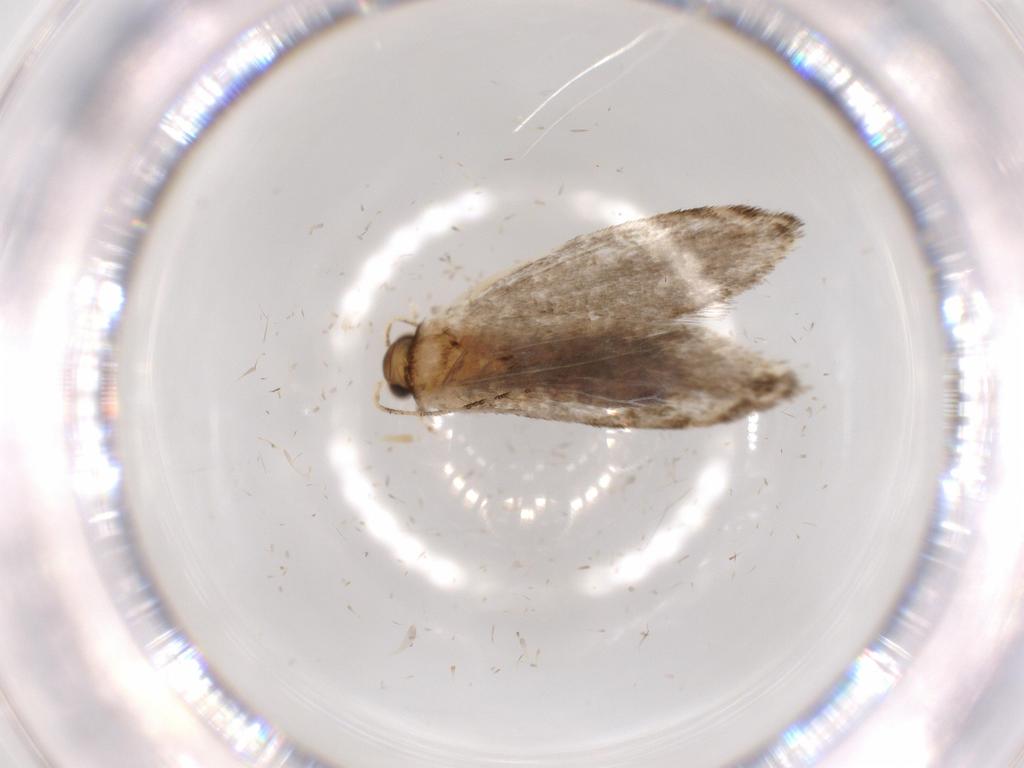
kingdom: Animalia
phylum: Arthropoda
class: Insecta
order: Lepidoptera
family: Tineidae
